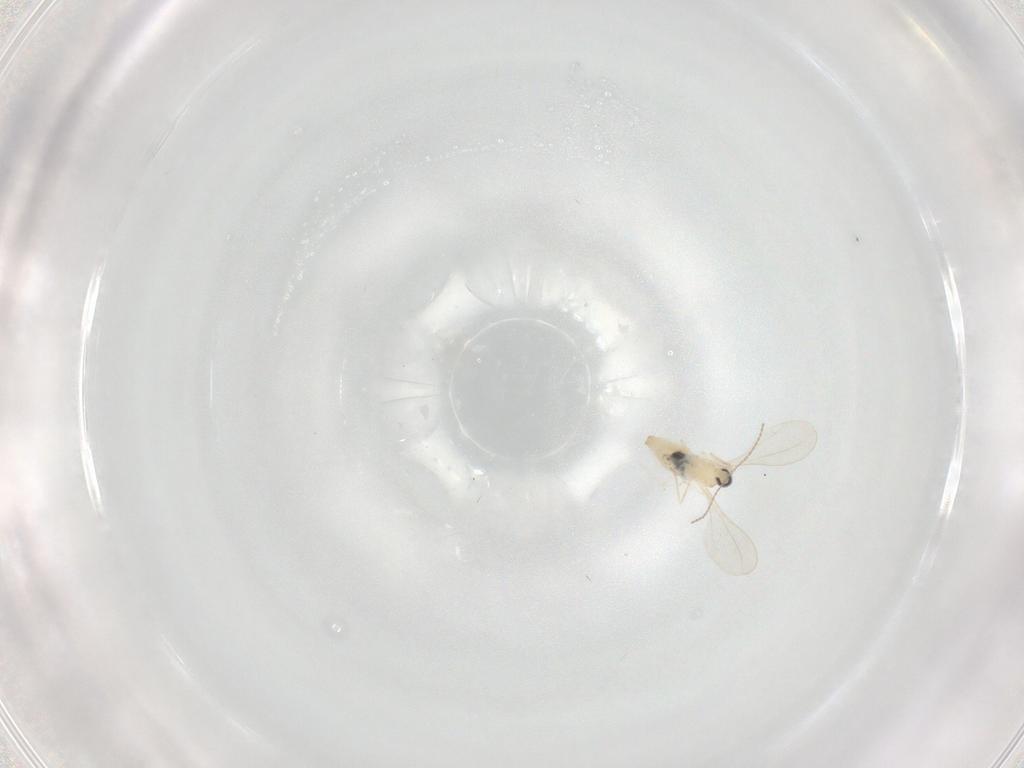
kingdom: Animalia
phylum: Arthropoda
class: Insecta
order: Diptera
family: Cecidomyiidae
